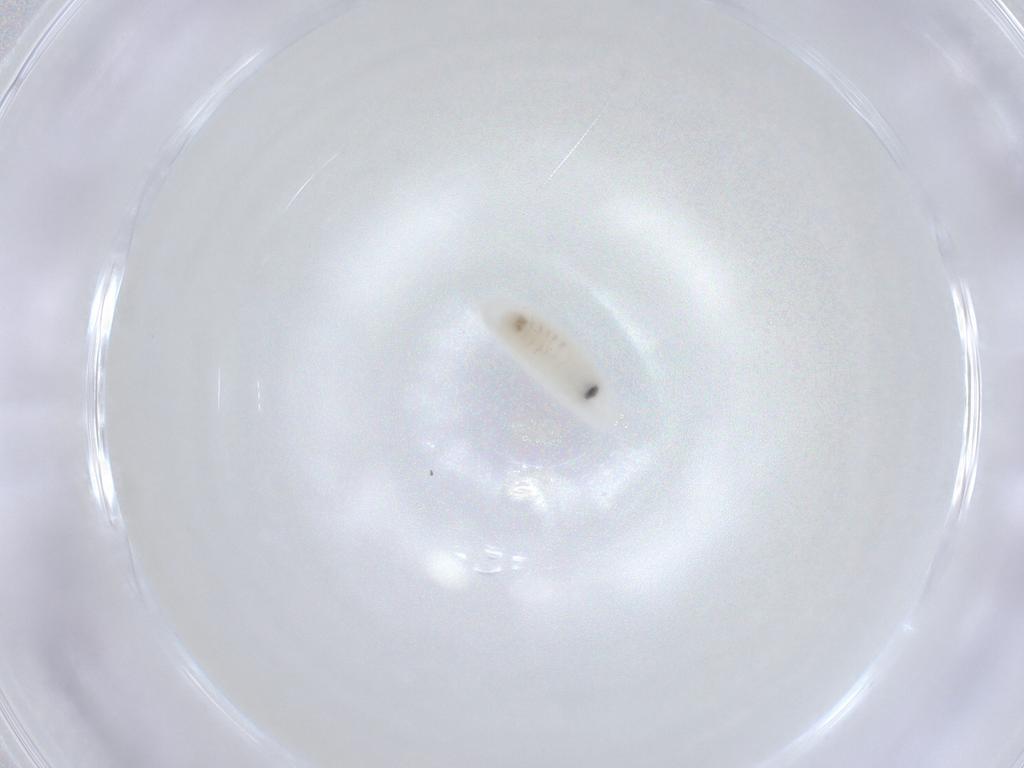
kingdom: Animalia
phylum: Arthropoda
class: Insecta
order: Diptera
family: Calliphoridae
